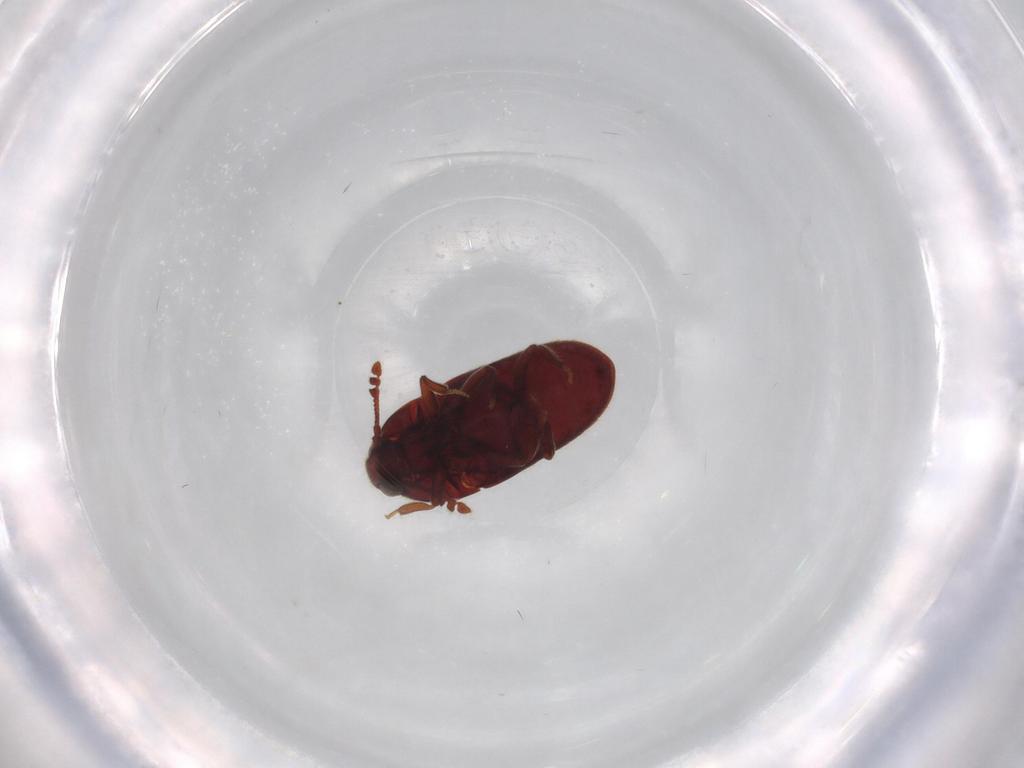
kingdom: Animalia
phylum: Arthropoda
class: Insecta
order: Coleoptera
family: Throscidae
